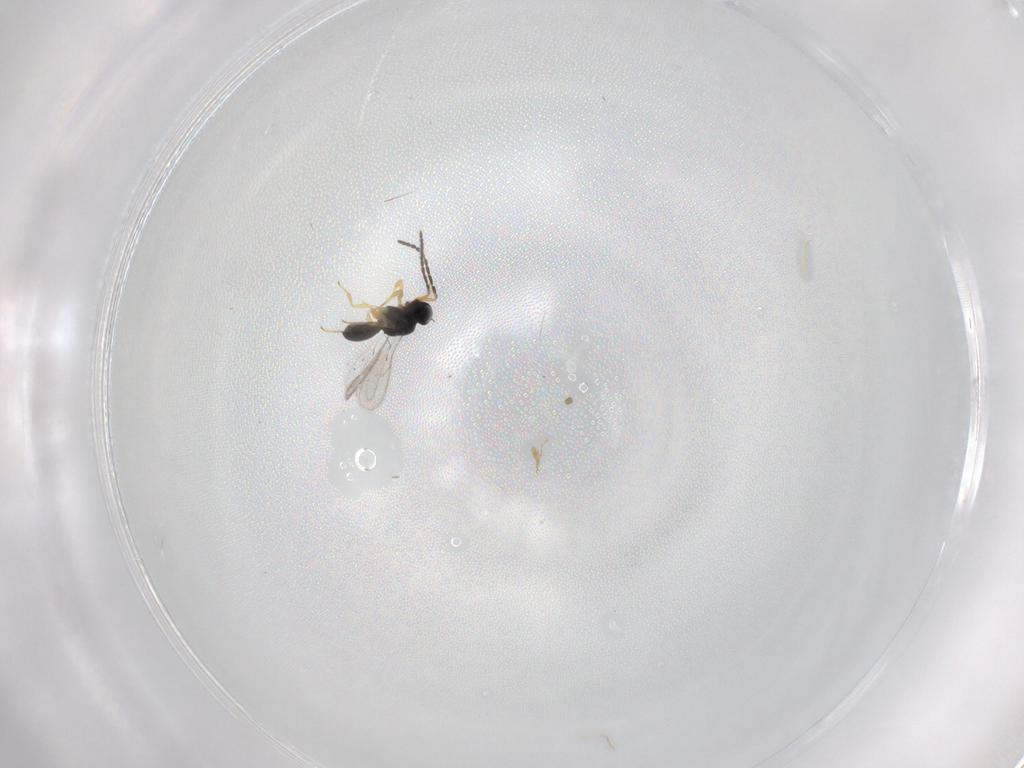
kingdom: Animalia
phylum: Arthropoda
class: Insecta
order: Hymenoptera
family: Scelionidae
